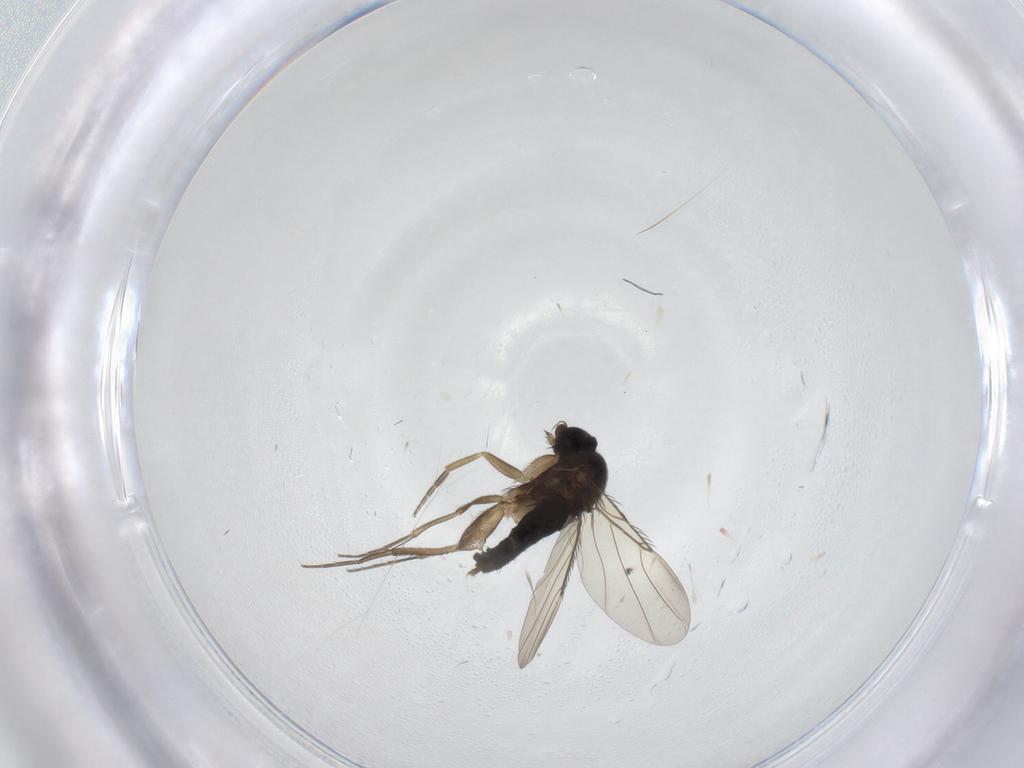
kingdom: Animalia
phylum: Arthropoda
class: Insecta
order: Diptera
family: Phoridae
